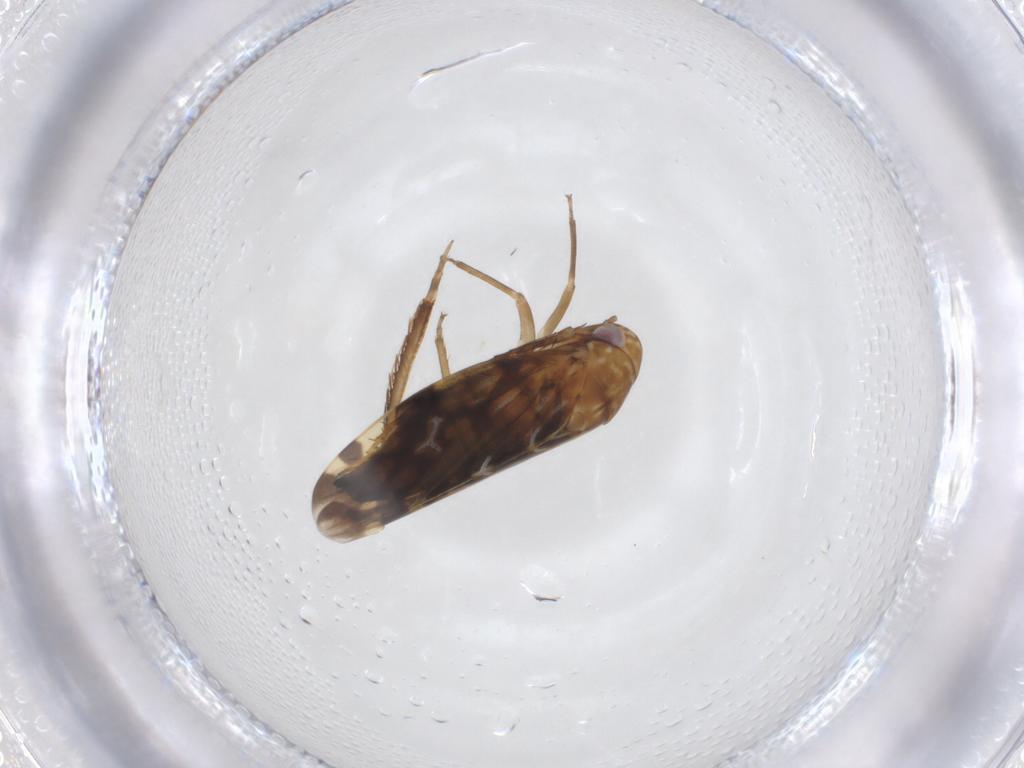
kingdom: Animalia
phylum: Arthropoda
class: Insecta
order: Hemiptera
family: Cicadellidae
